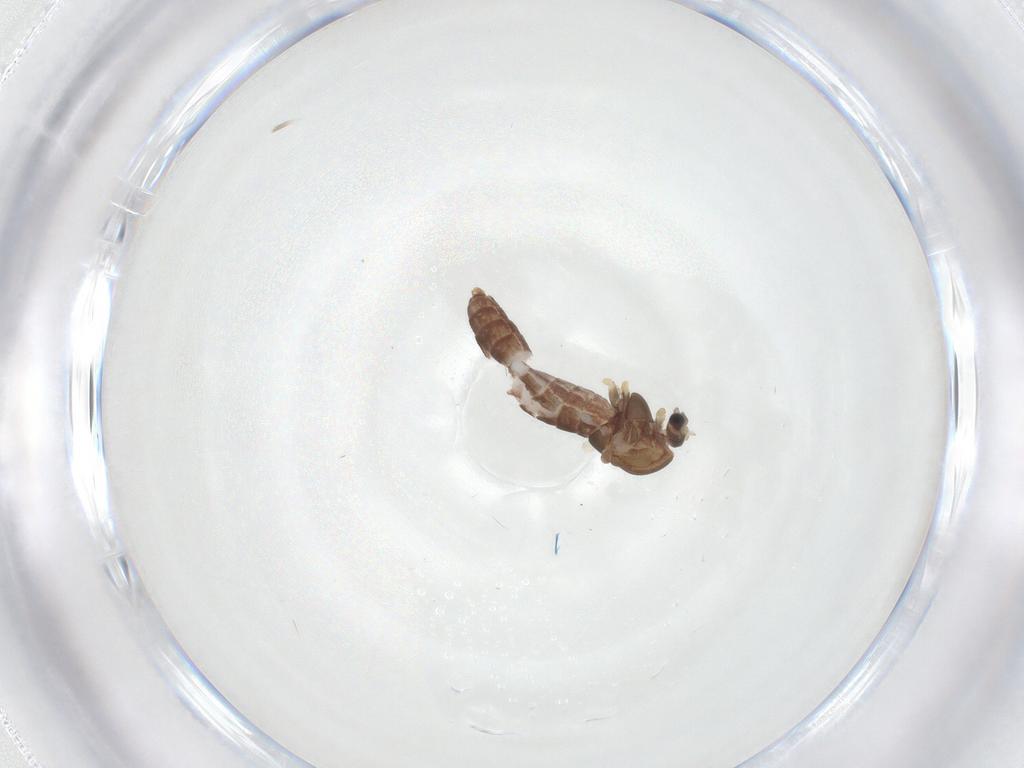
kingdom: Animalia
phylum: Arthropoda
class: Insecta
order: Diptera
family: Chironomidae
